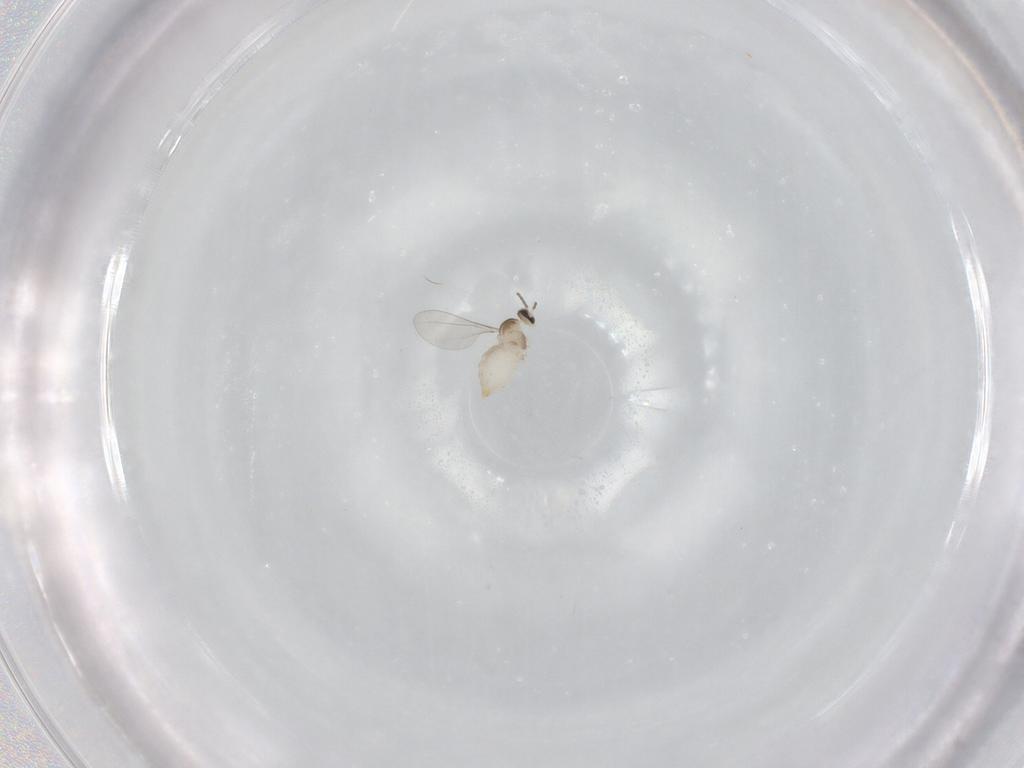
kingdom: Animalia
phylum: Arthropoda
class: Insecta
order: Diptera
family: Cecidomyiidae
